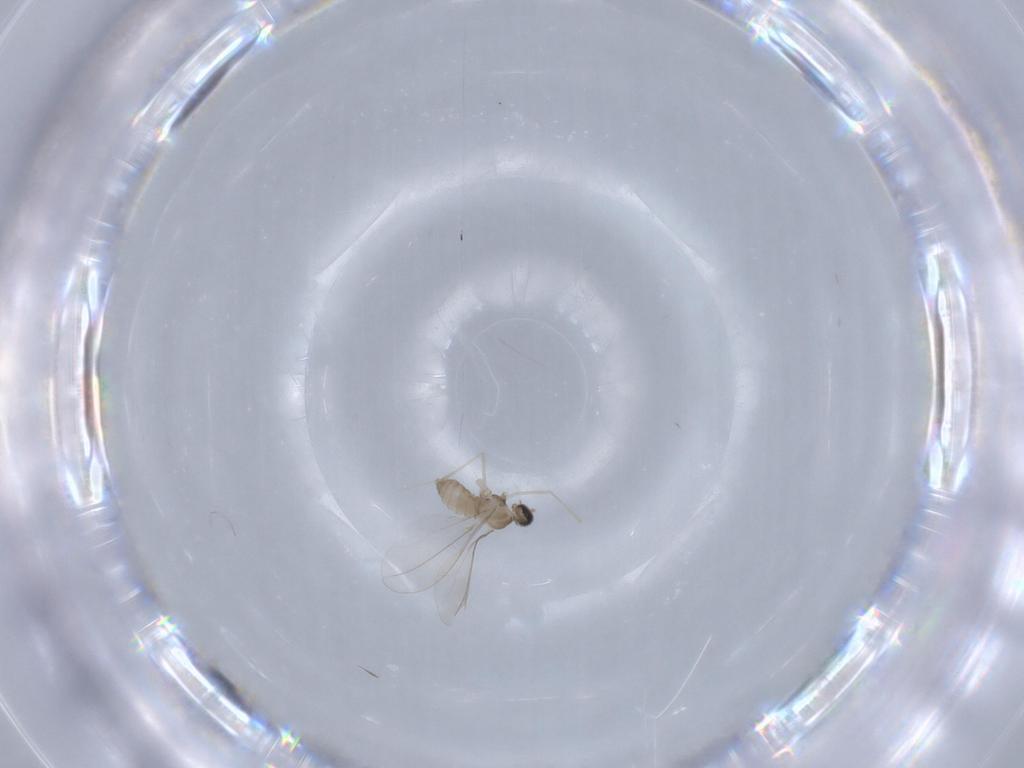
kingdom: Animalia
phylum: Arthropoda
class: Insecta
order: Diptera
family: Cecidomyiidae
